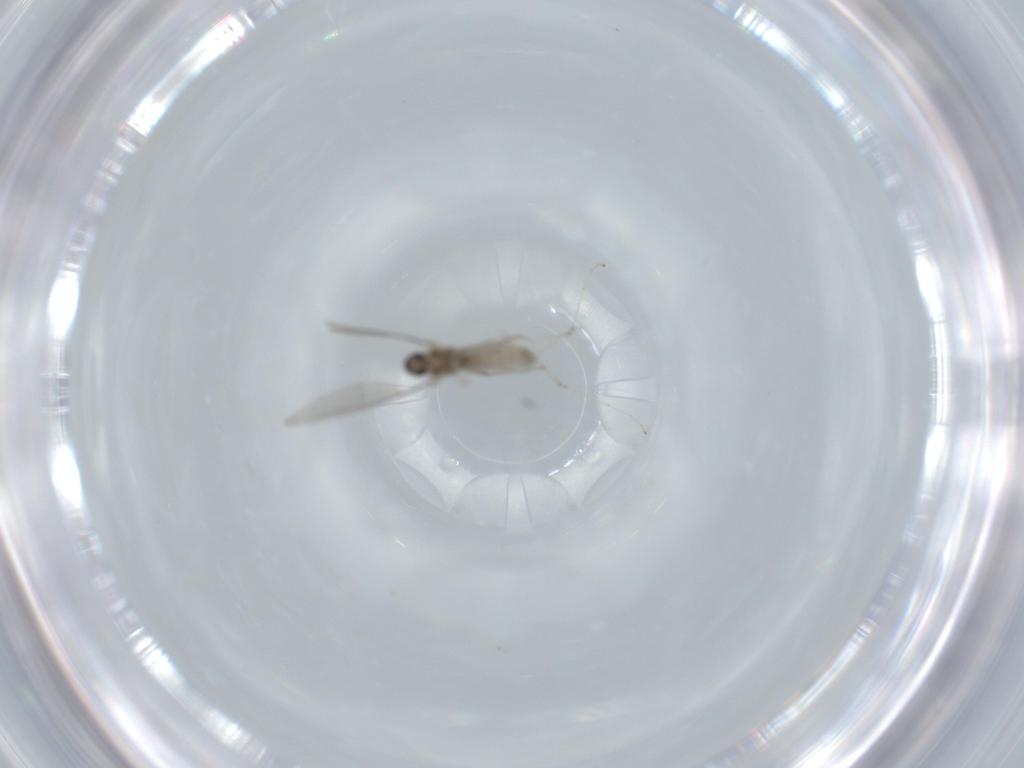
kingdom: Animalia
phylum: Arthropoda
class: Insecta
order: Diptera
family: Cecidomyiidae
